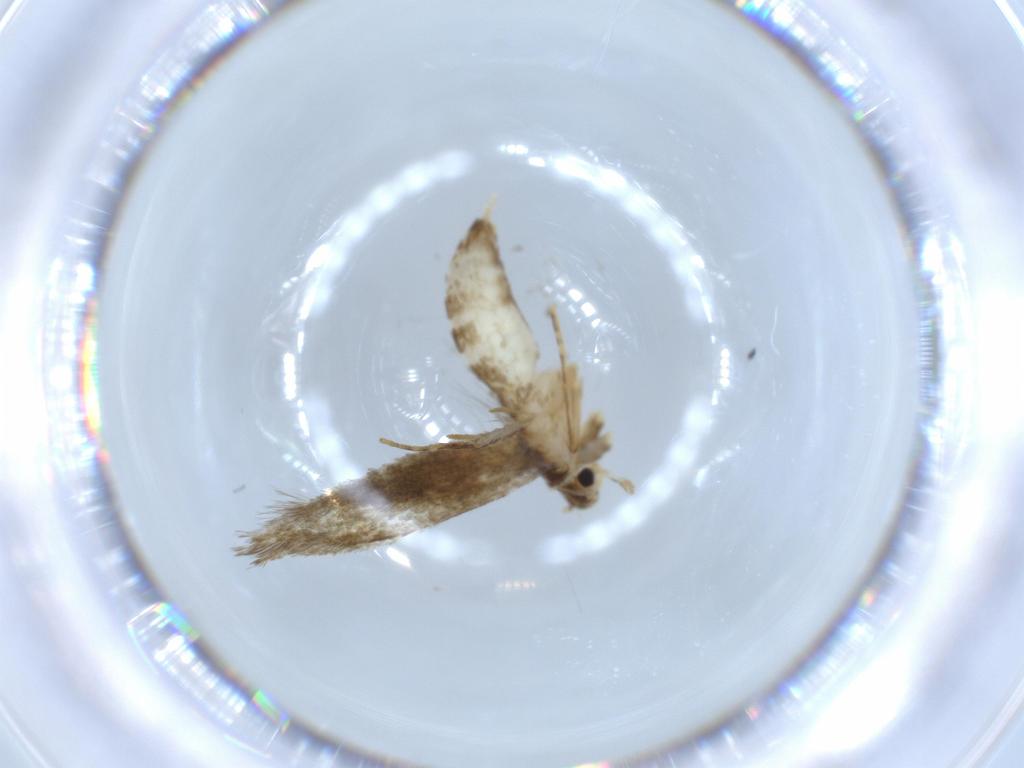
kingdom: Animalia
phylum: Arthropoda
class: Insecta
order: Lepidoptera
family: Tineidae
